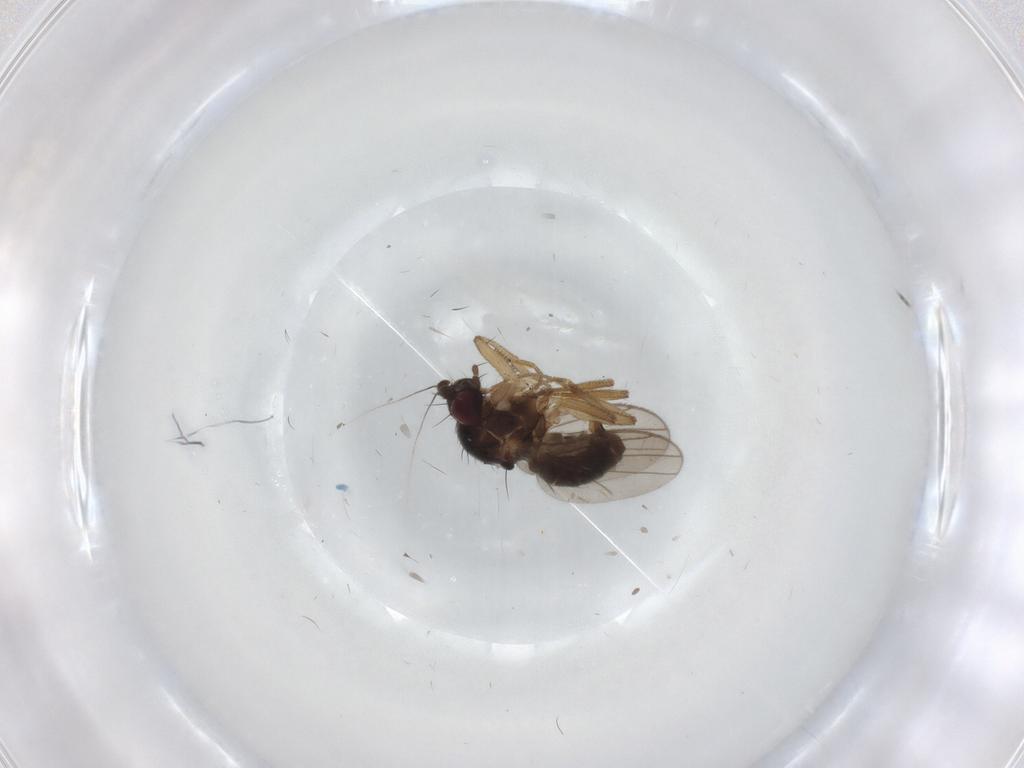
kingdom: Animalia
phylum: Arthropoda
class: Insecta
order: Diptera
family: Inbiomyiidae
